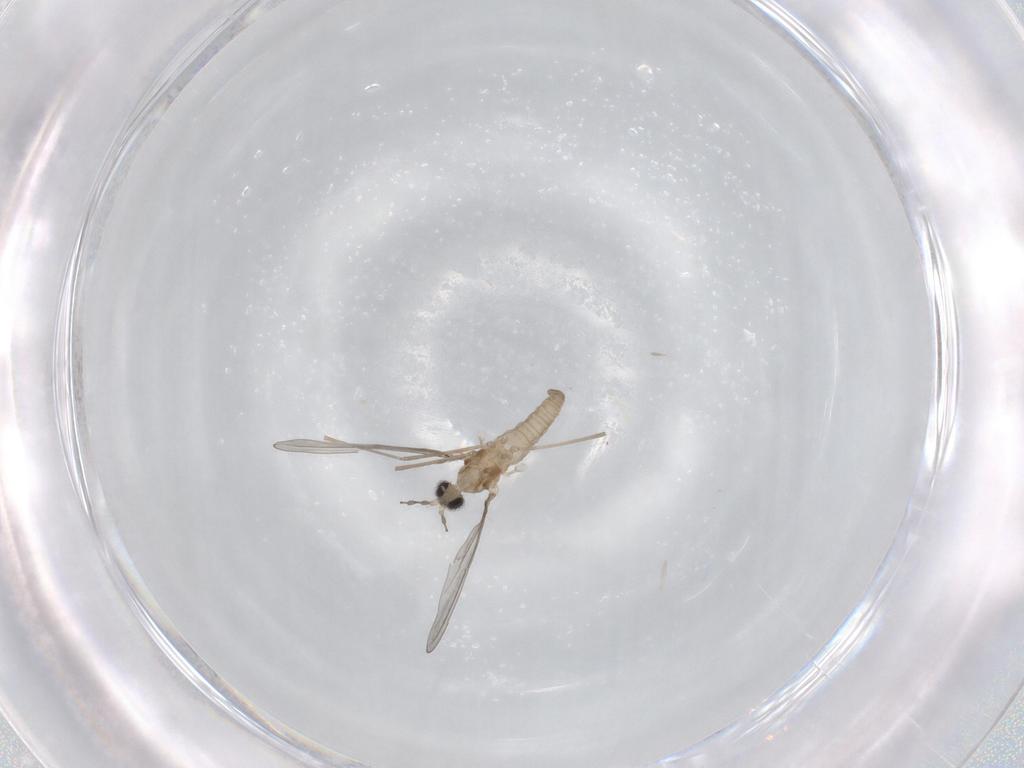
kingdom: Animalia
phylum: Arthropoda
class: Insecta
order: Diptera
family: Cecidomyiidae
